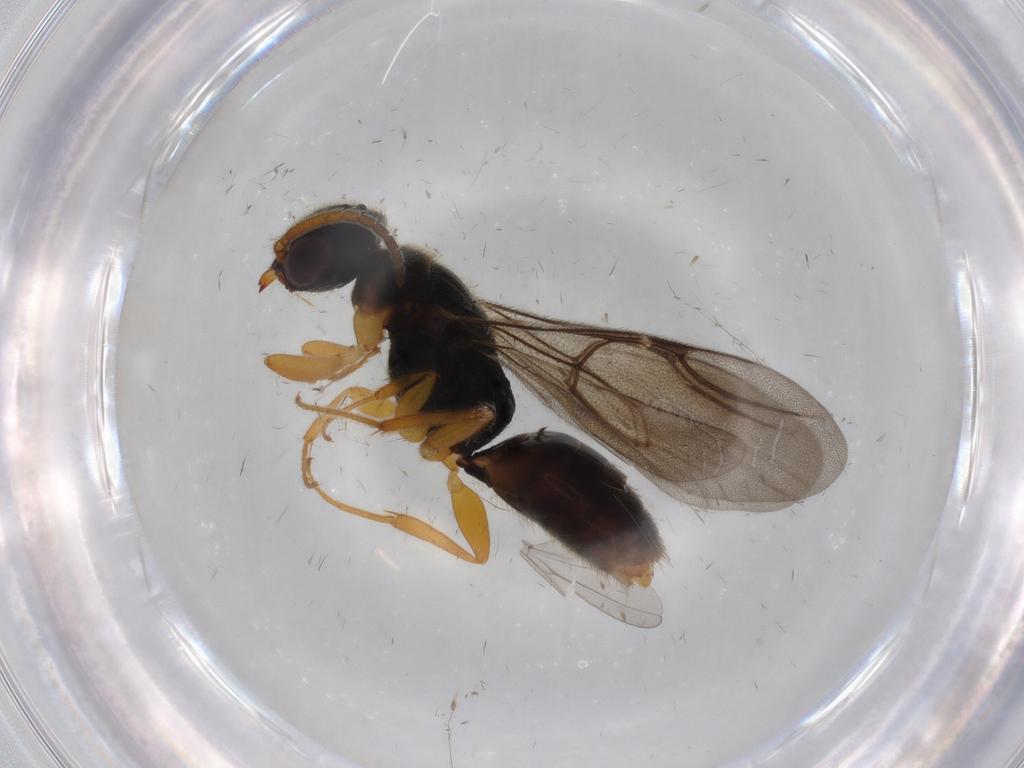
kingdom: Animalia
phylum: Arthropoda
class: Insecta
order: Hymenoptera
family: Bethylidae
